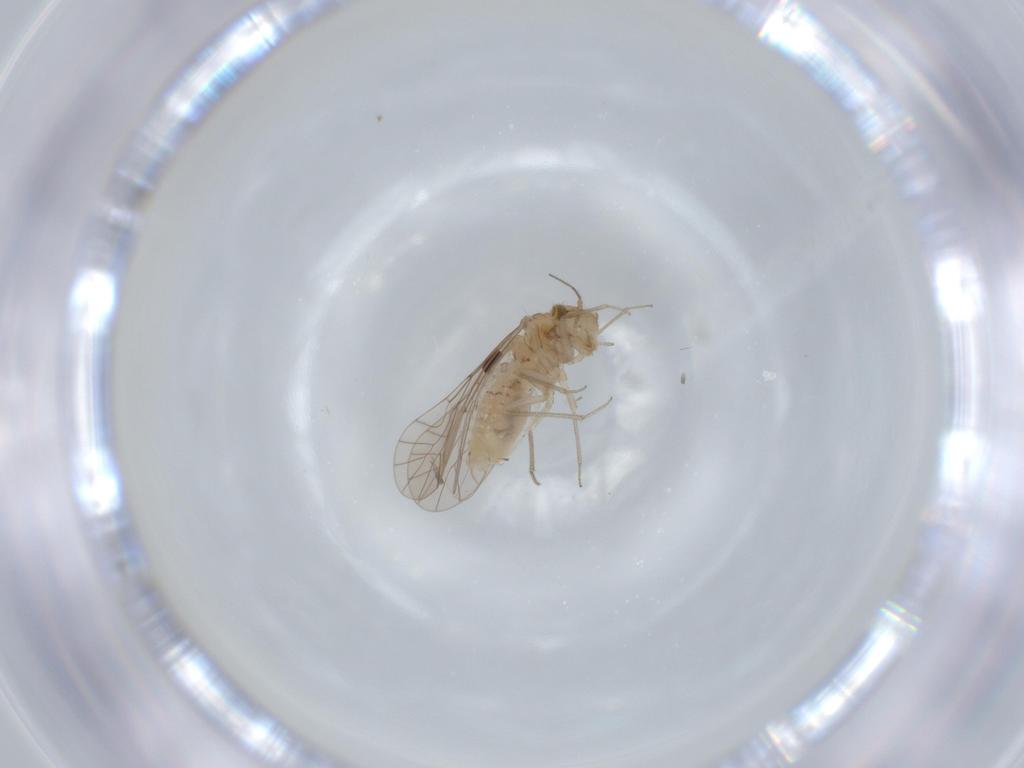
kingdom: Animalia
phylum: Arthropoda
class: Insecta
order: Psocodea
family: Lachesillidae
